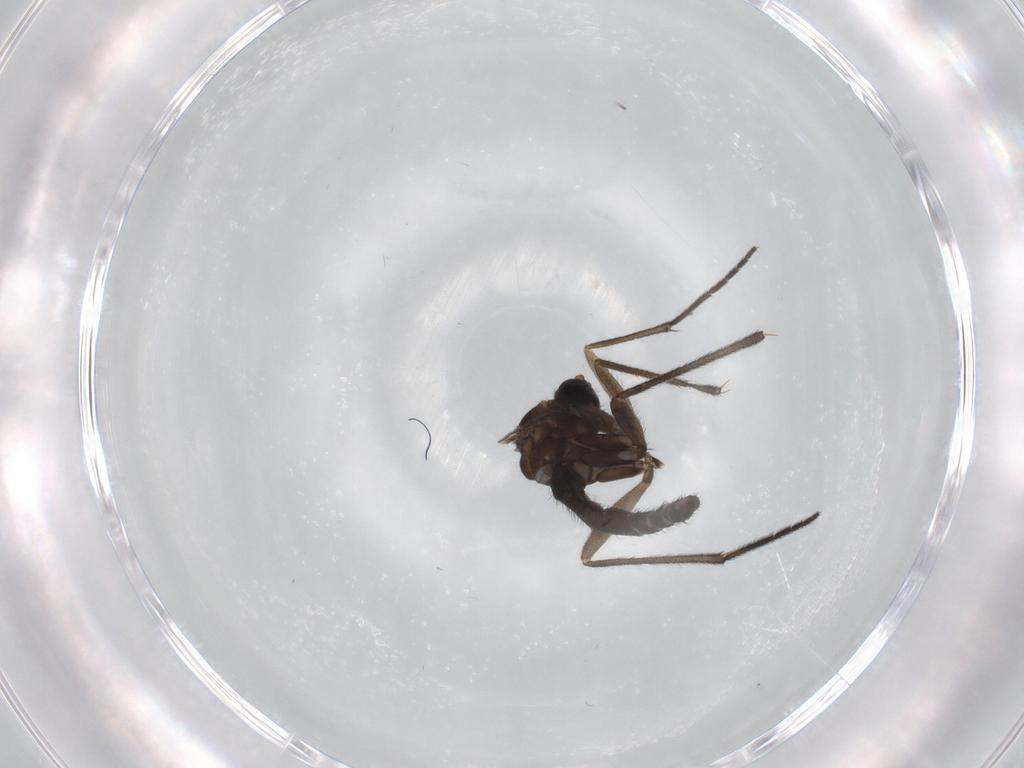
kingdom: Animalia
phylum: Arthropoda
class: Insecta
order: Diptera
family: Sciaridae
